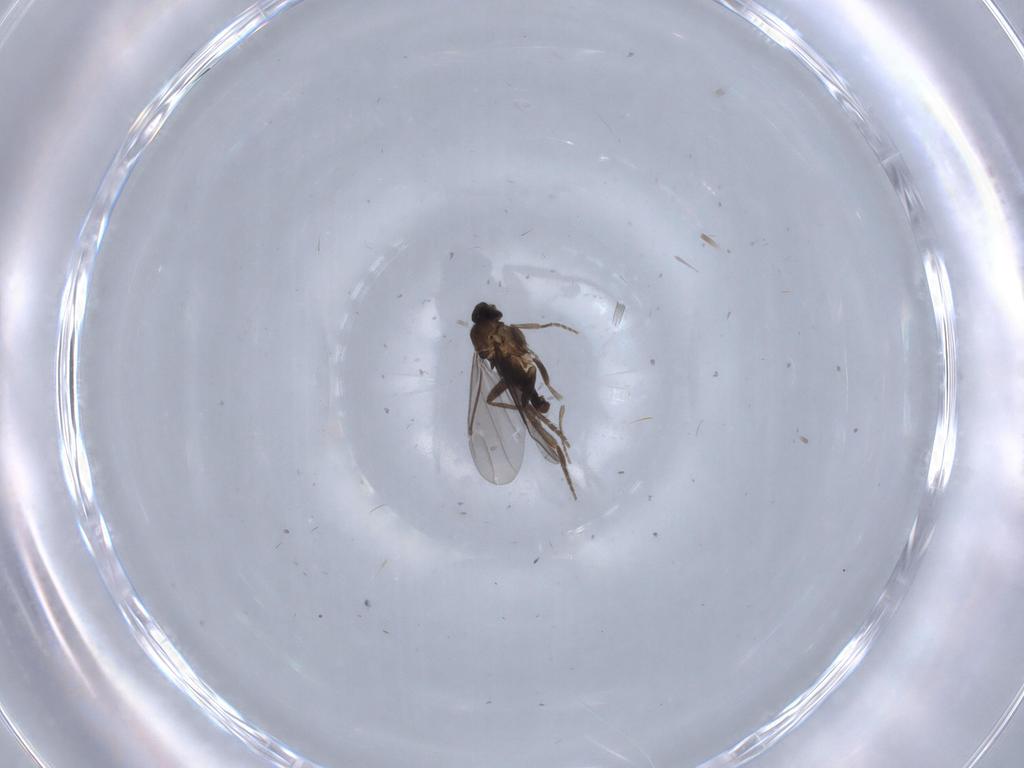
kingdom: Animalia
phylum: Arthropoda
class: Insecta
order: Diptera
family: Phoridae
